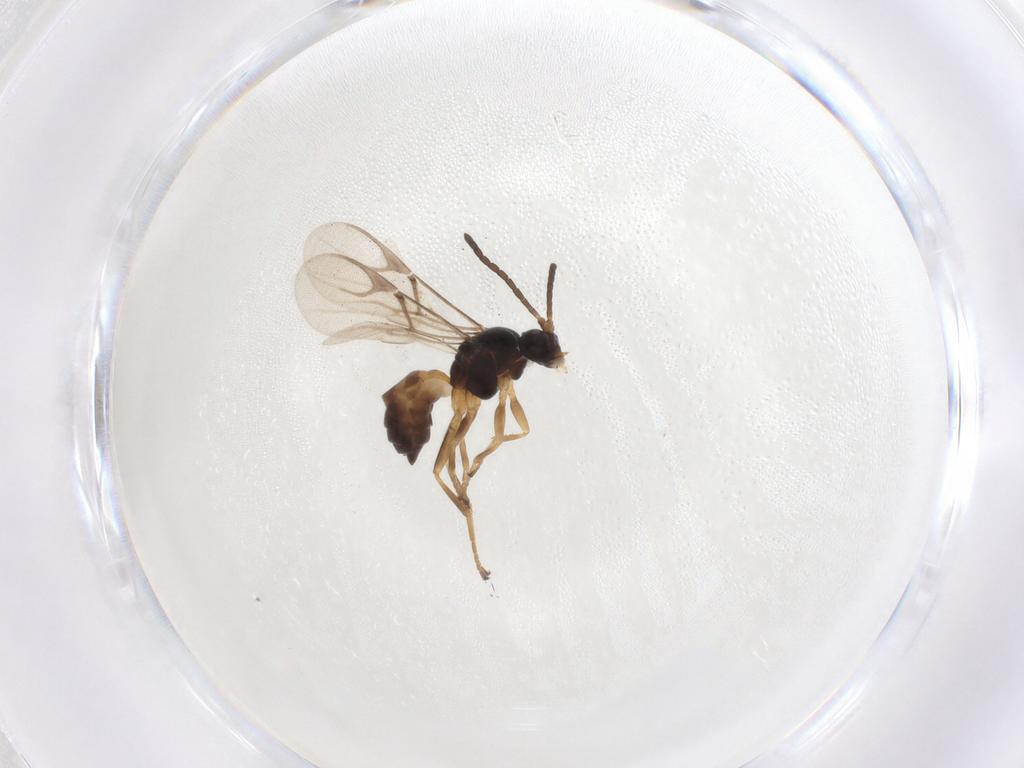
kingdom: Animalia
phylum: Arthropoda
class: Insecta
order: Hymenoptera
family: Braconidae
